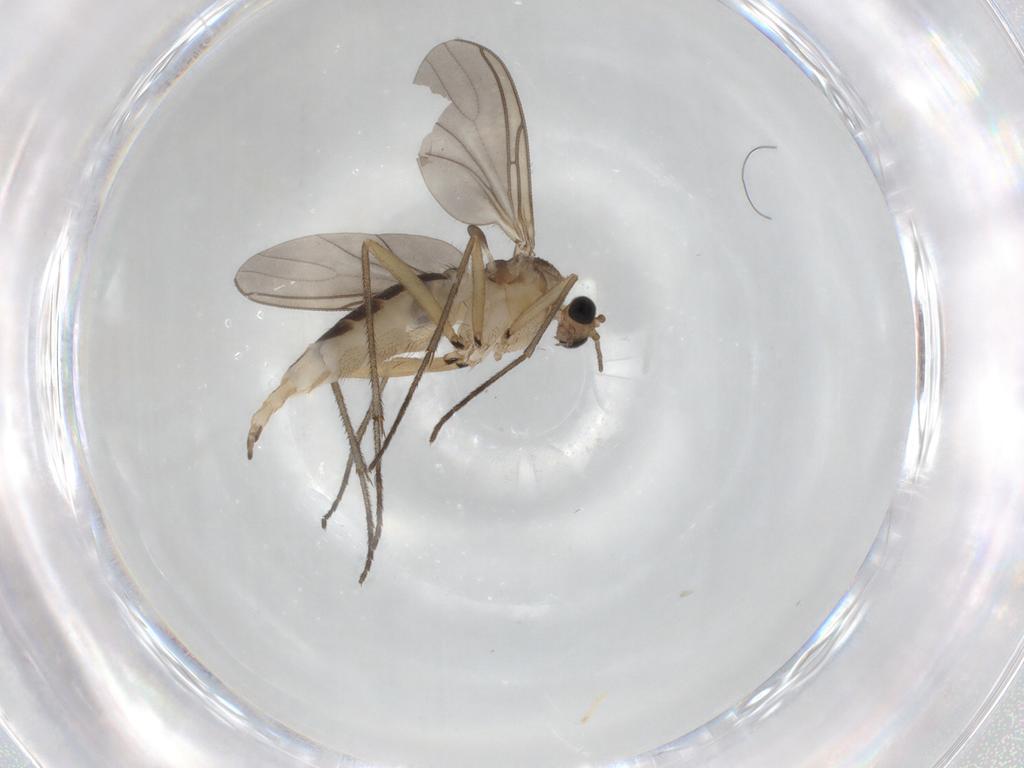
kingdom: Animalia
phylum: Arthropoda
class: Insecta
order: Diptera
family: Sciaridae
